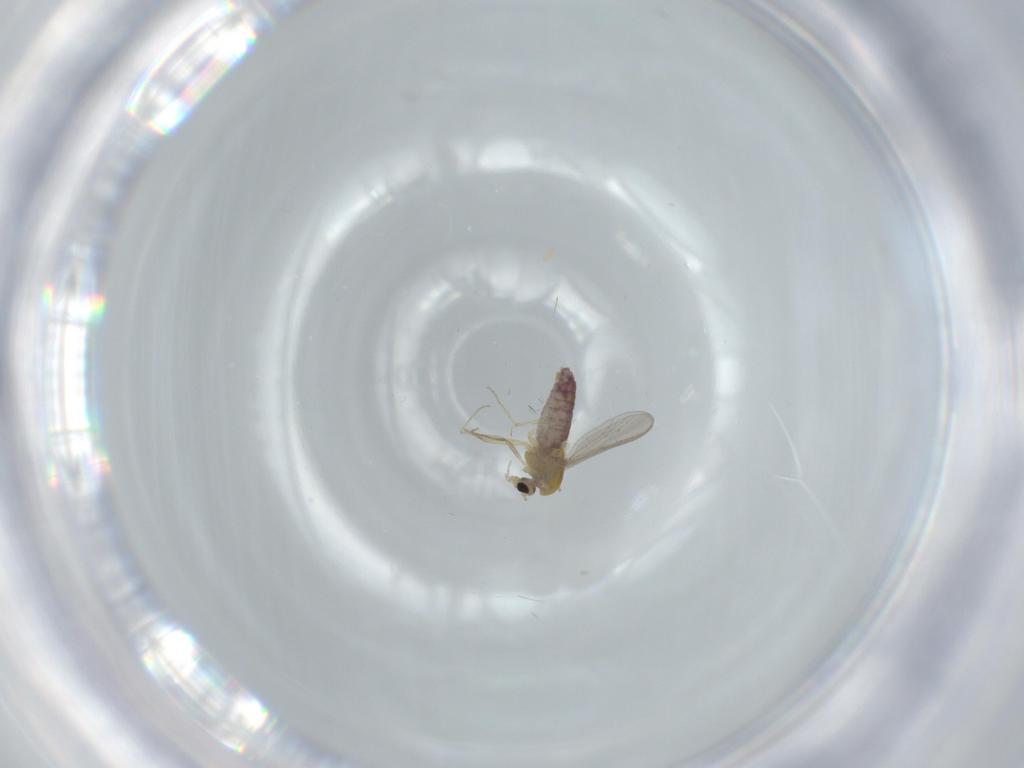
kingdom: Animalia
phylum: Arthropoda
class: Insecta
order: Diptera
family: Chironomidae
